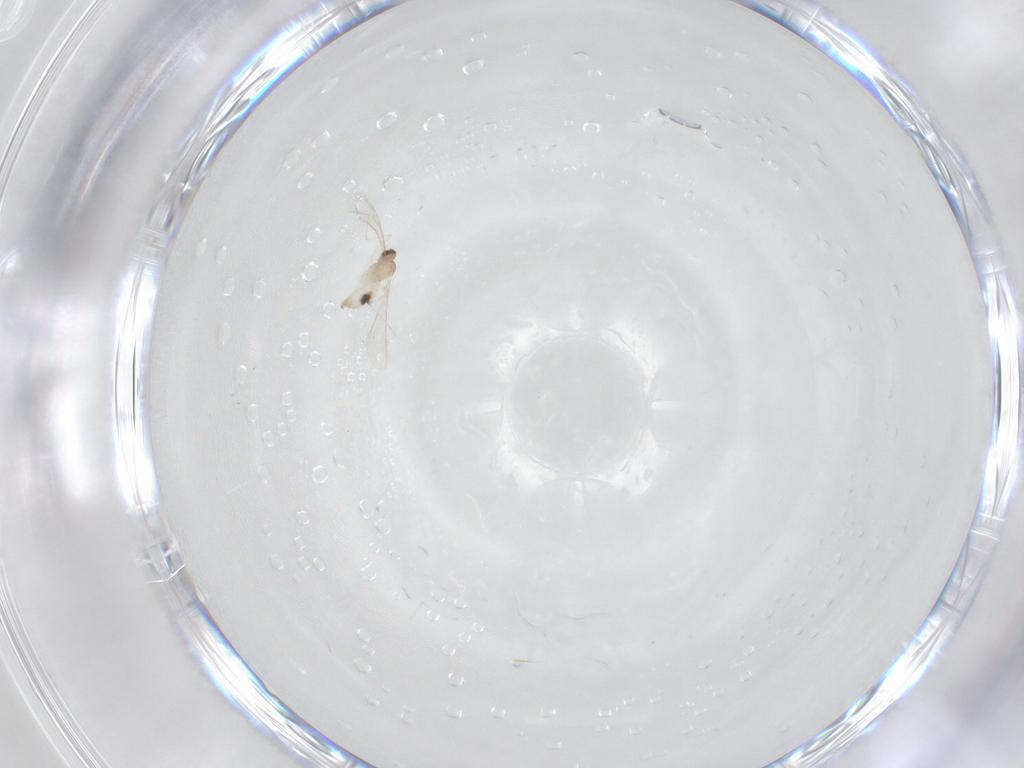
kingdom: Animalia
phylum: Arthropoda
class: Insecta
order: Diptera
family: Cecidomyiidae
